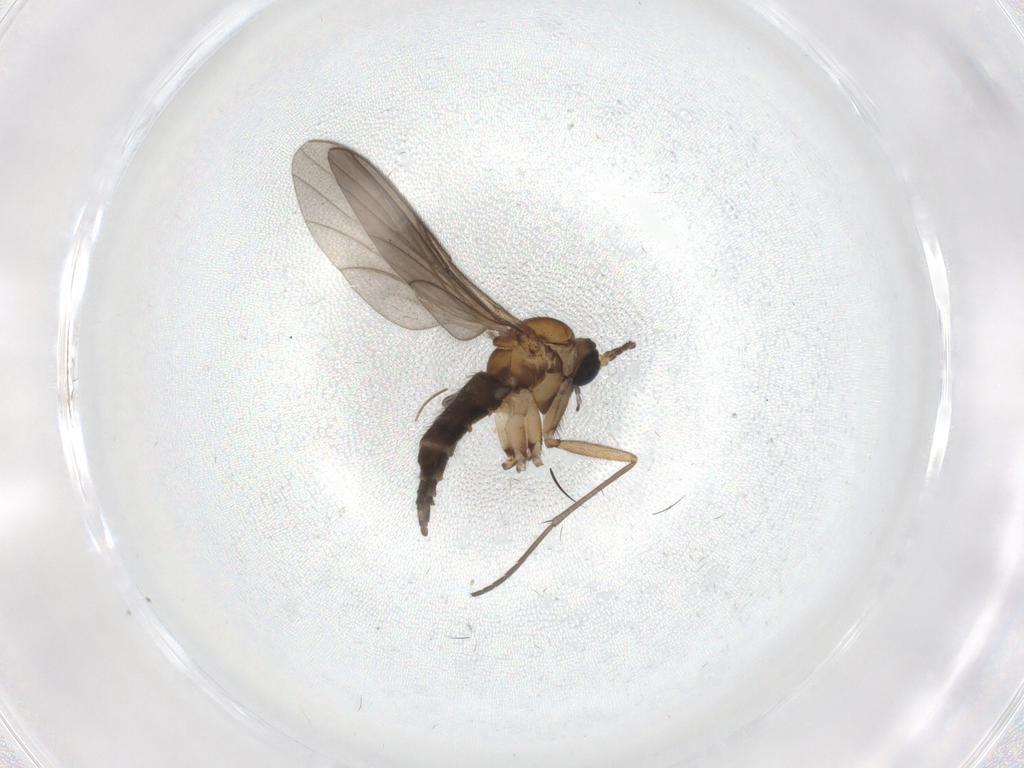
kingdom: Animalia
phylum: Arthropoda
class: Insecta
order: Diptera
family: Sciaridae
